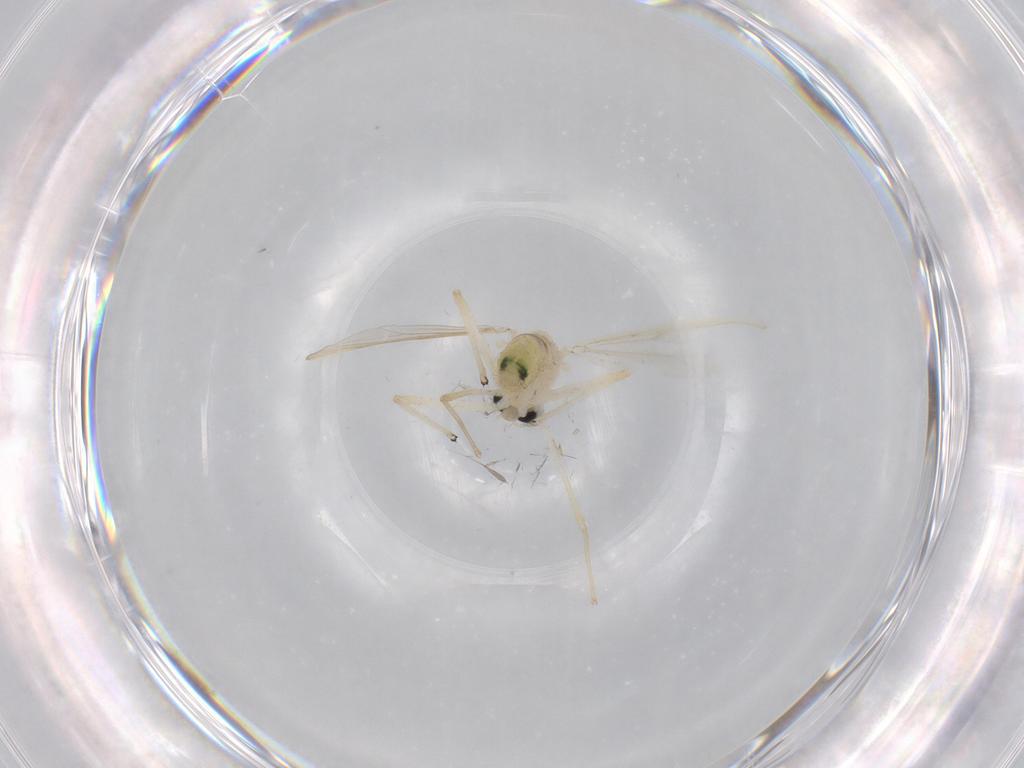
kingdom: Animalia
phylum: Arthropoda
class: Insecta
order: Diptera
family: Chironomidae
